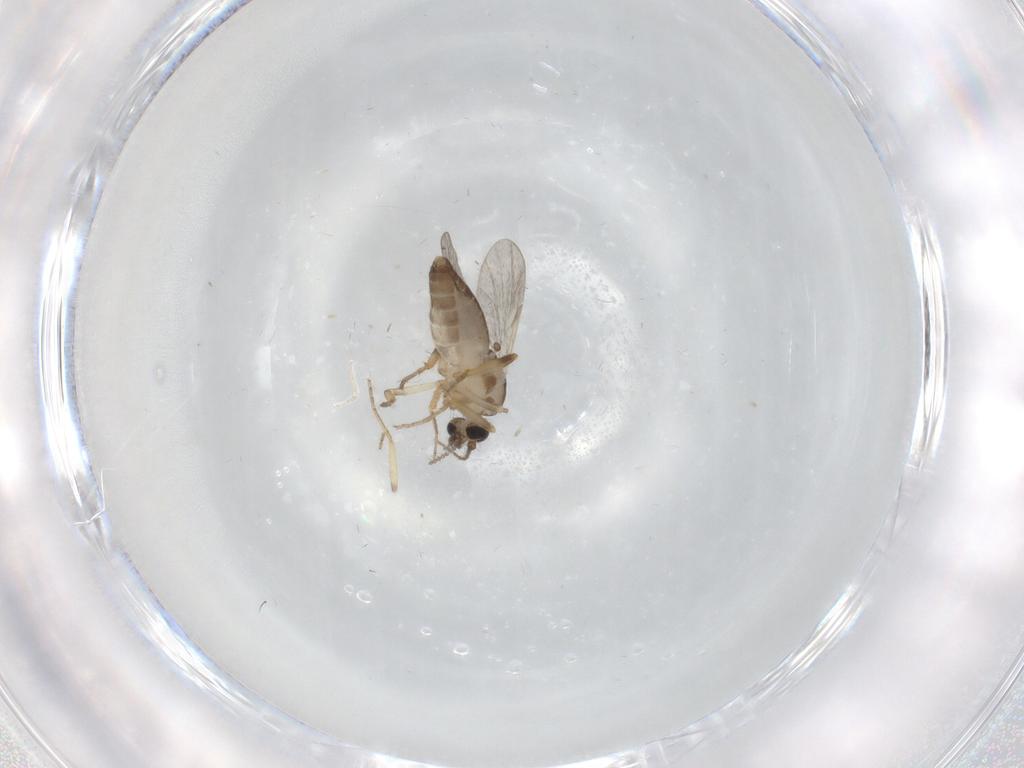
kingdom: Animalia
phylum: Arthropoda
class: Insecta
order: Diptera
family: Ceratopogonidae
